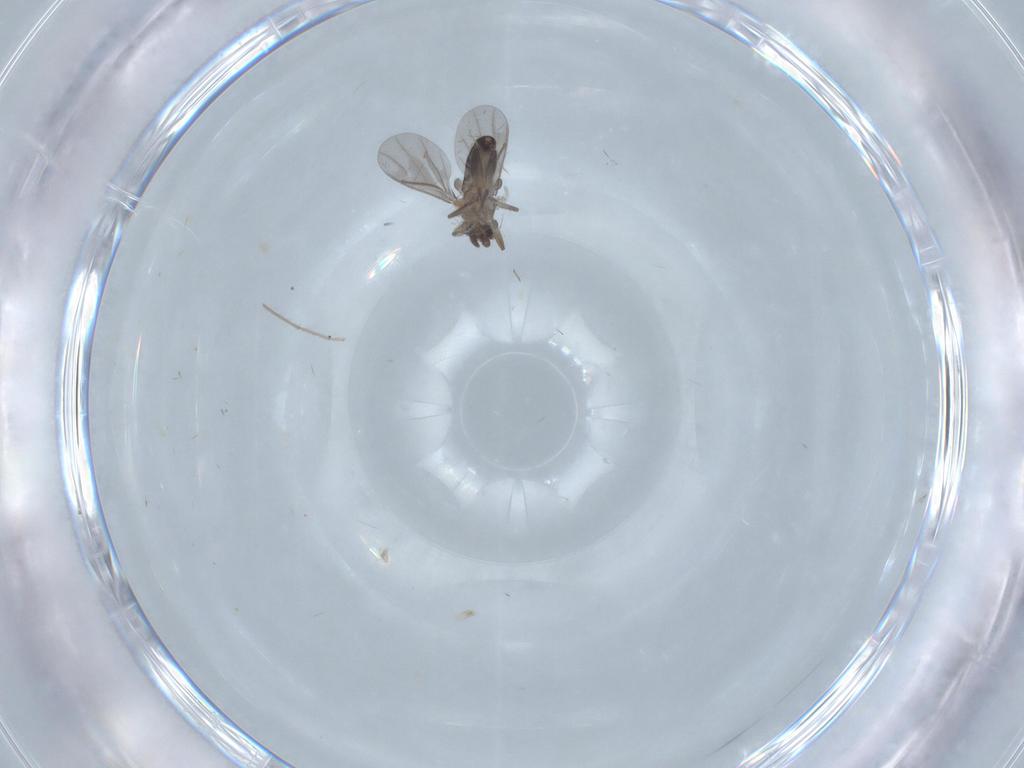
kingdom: Animalia
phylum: Arthropoda
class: Insecta
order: Diptera
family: Chironomidae
